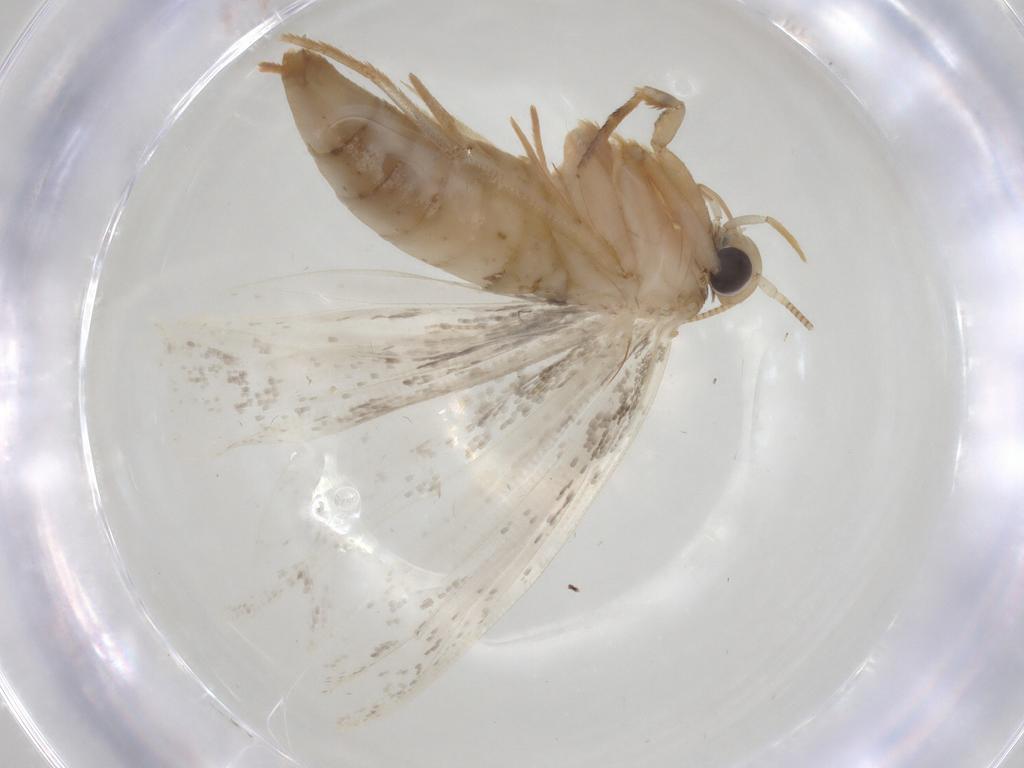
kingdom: Animalia
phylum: Arthropoda
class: Insecta
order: Lepidoptera
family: Tineidae
